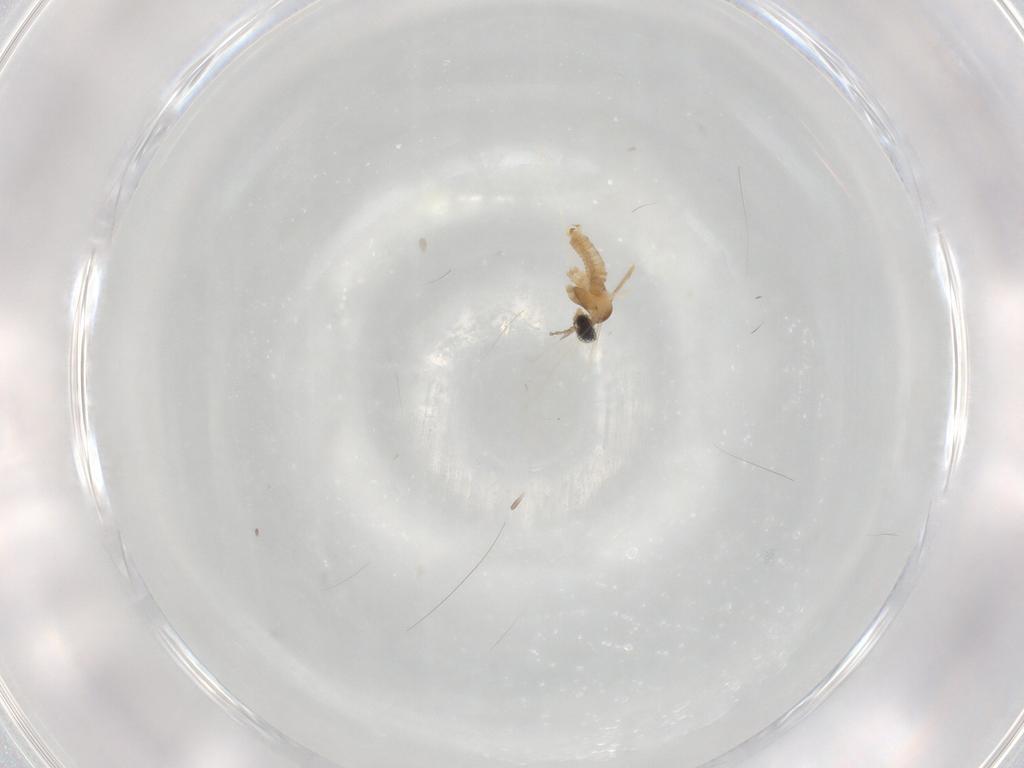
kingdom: Animalia
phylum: Arthropoda
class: Insecta
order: Diptera
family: Cecidomyiidae
